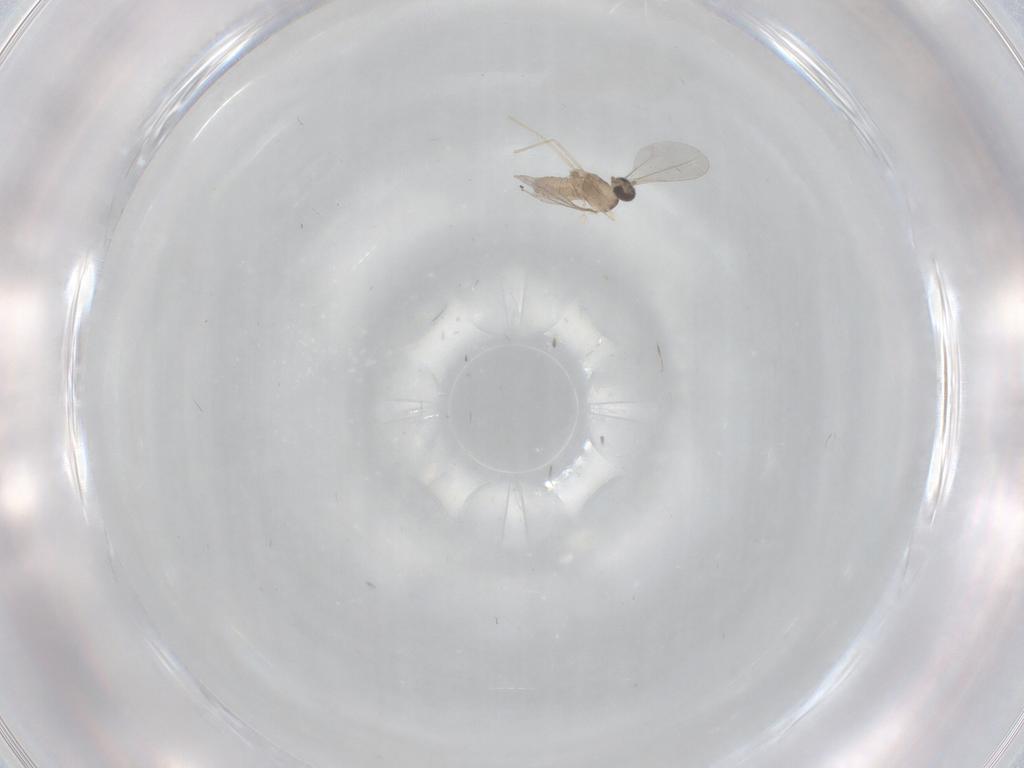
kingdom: Animalia
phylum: Arthropoda
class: Insecta
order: Diptera
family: Cecidomyiidae
